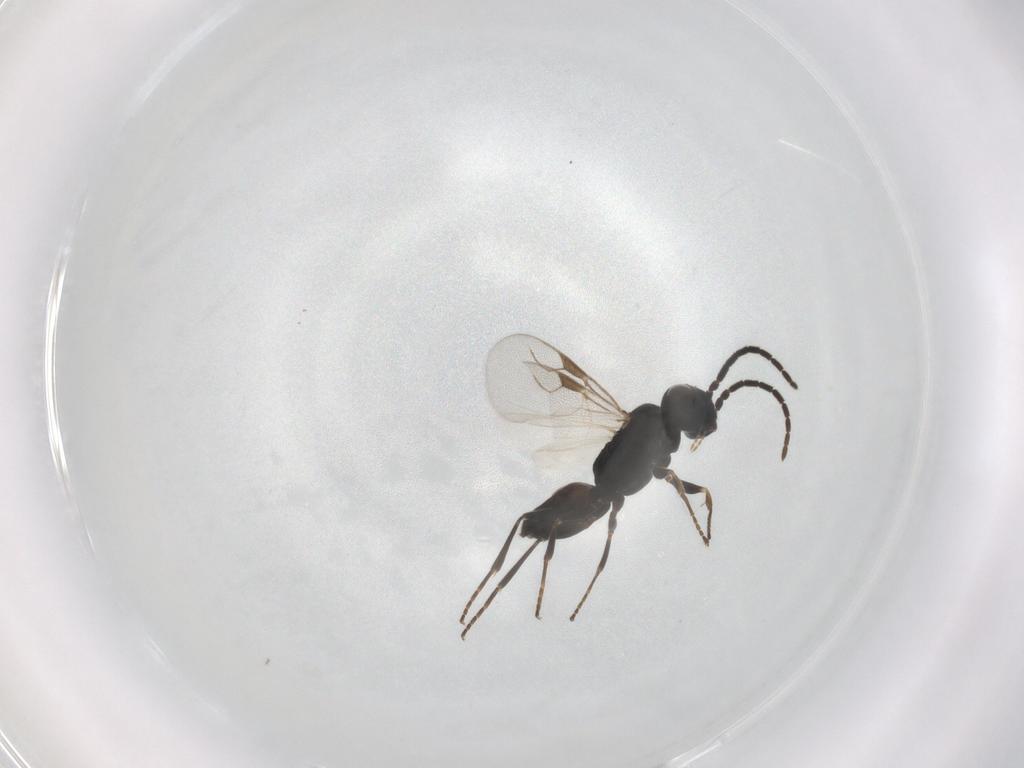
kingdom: Animalia
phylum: Arthropoda
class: Insecta
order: Hymenoptera
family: Dryinidae
